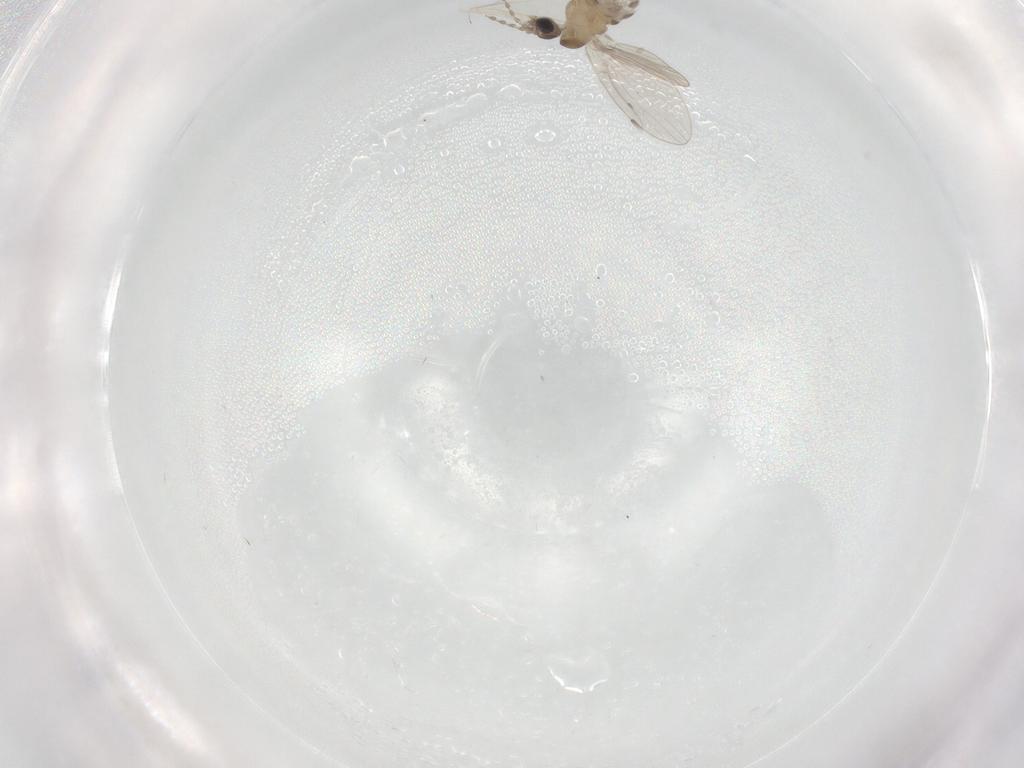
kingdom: Animalia
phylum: Arthropoda
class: Insecta
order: Diptera
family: Psychodidae
